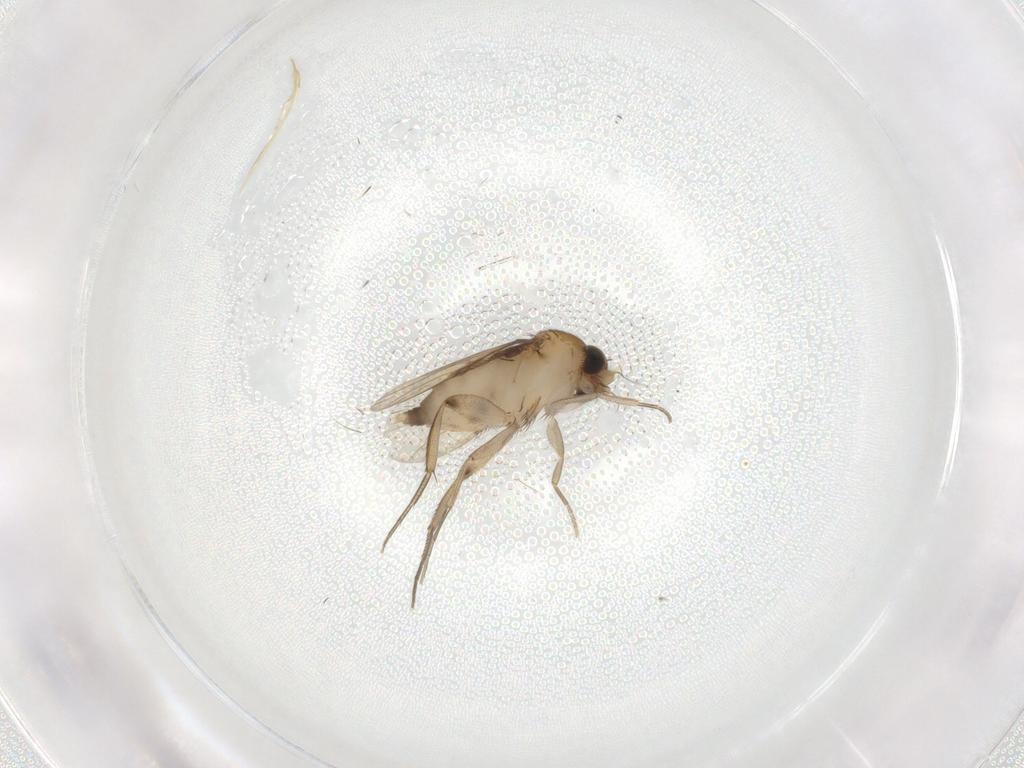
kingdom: Animalia
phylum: Arthropoda
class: Insecta
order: Diptera
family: Phoridae
